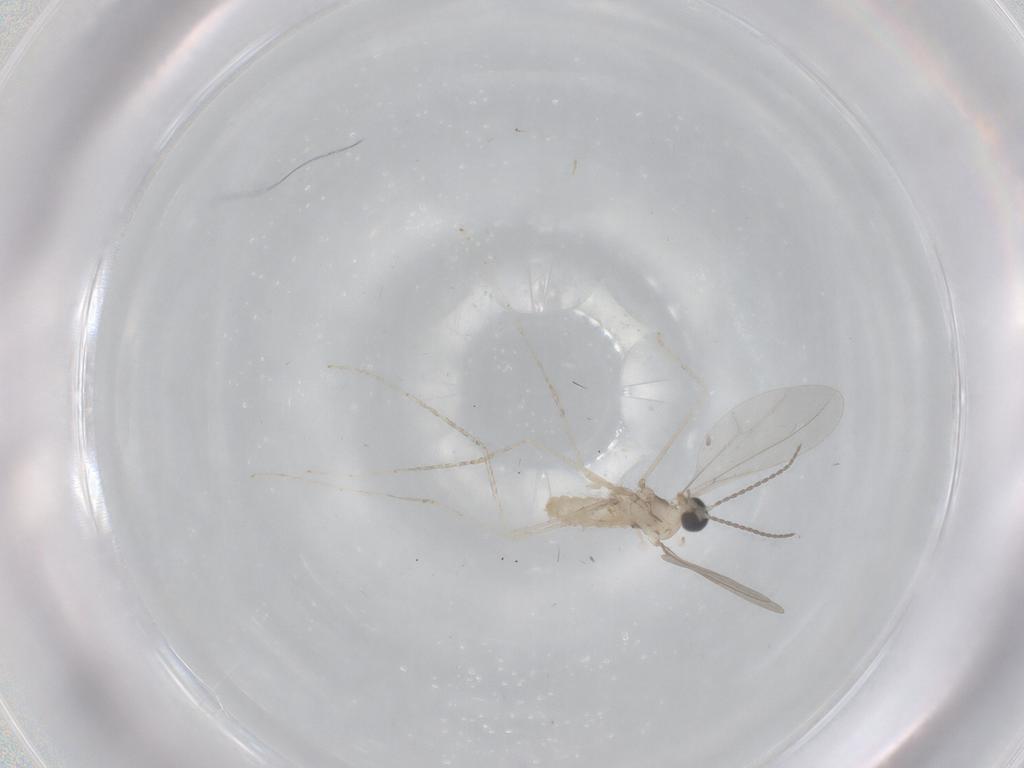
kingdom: Animalia
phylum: Arthropoda
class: Insecta
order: Diptera
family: Cecidomyiidae
